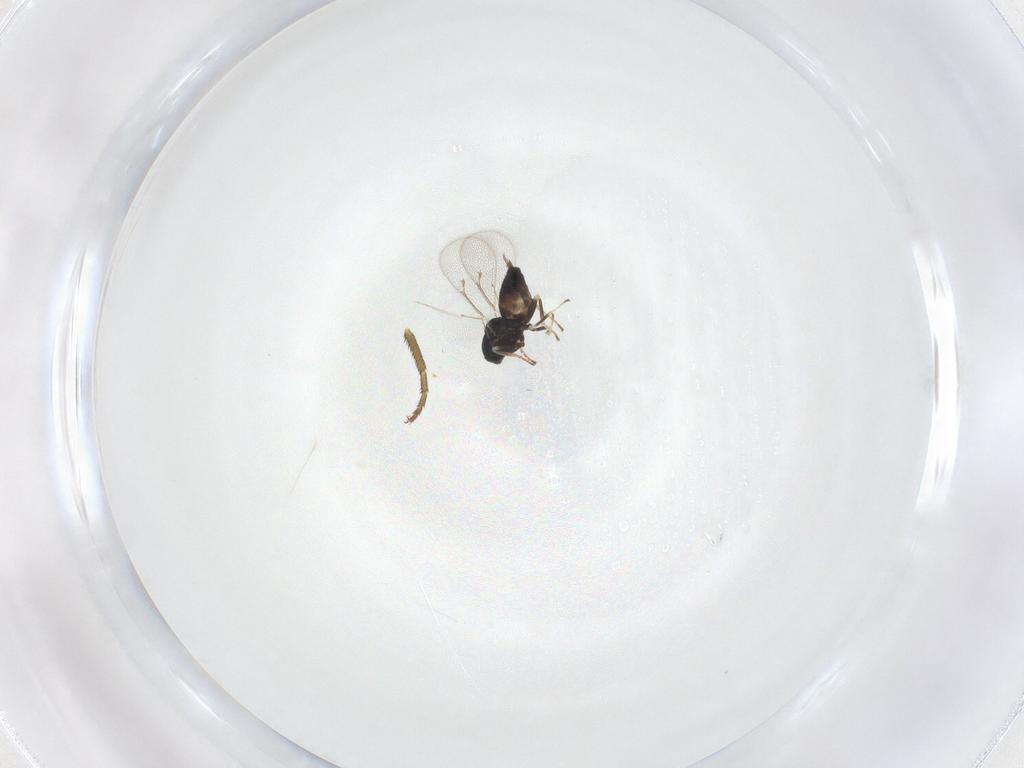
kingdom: Animalia
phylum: Arthropoda
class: Insecta
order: Hymenoptera
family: Eulophidae
